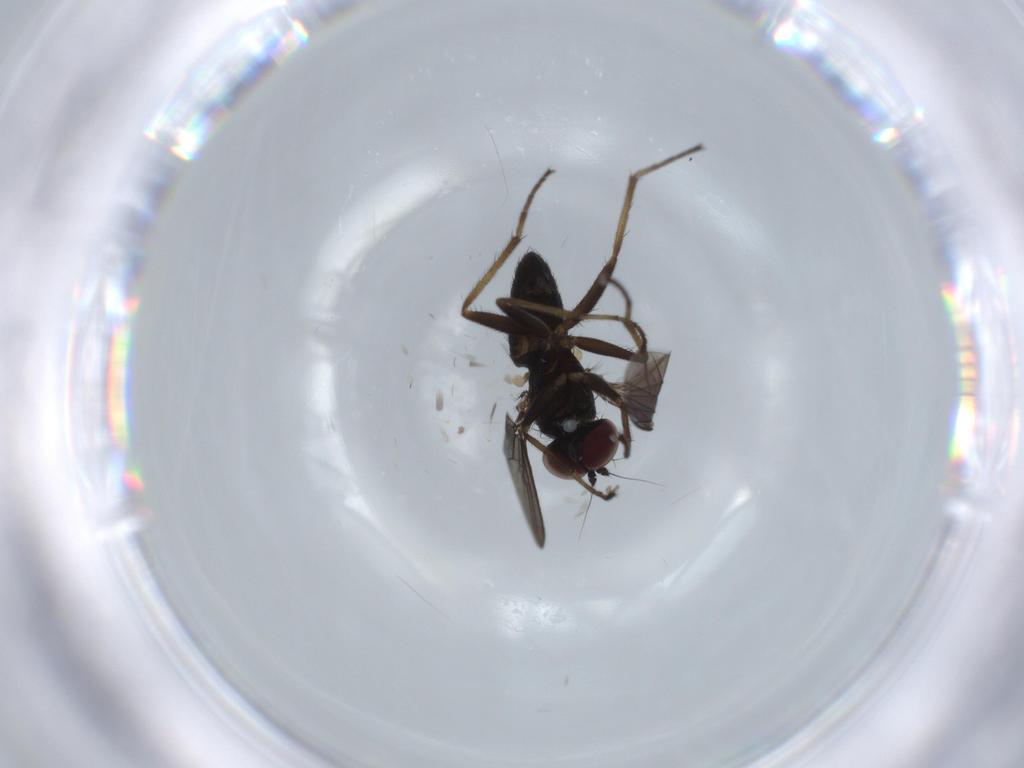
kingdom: Animalia
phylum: Arthropoda
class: Insecta
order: Diptera
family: Dolichopodidae
